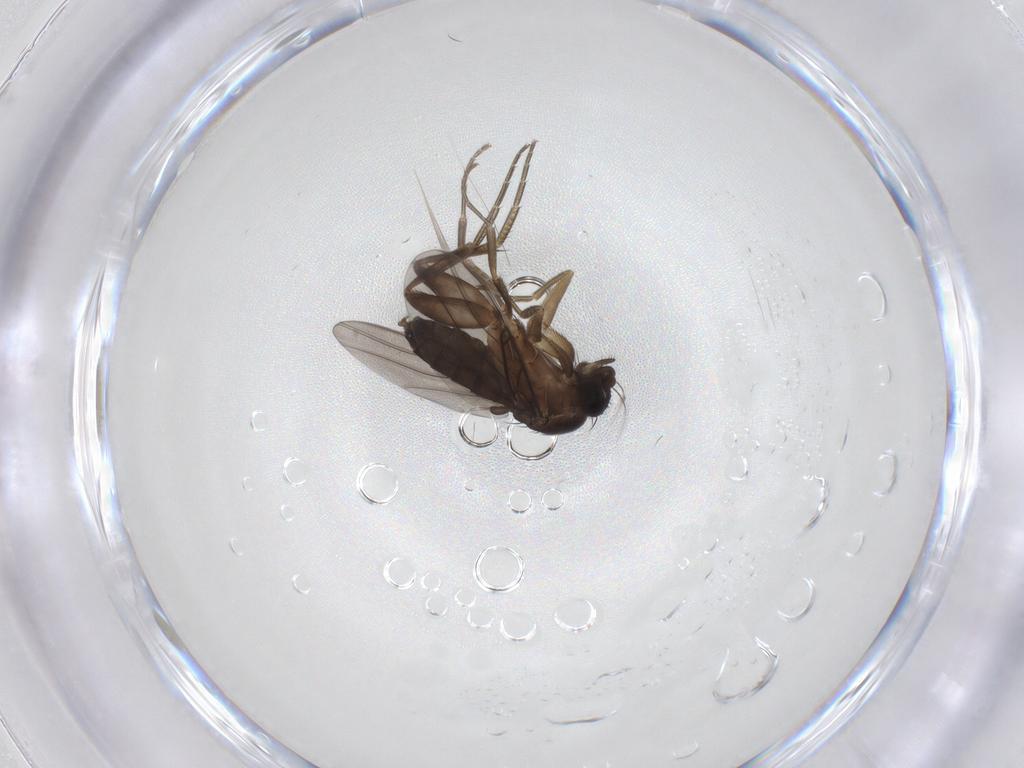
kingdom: Animalia
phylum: Arthropoda
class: Insecta
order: Diptera
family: Phoridae
